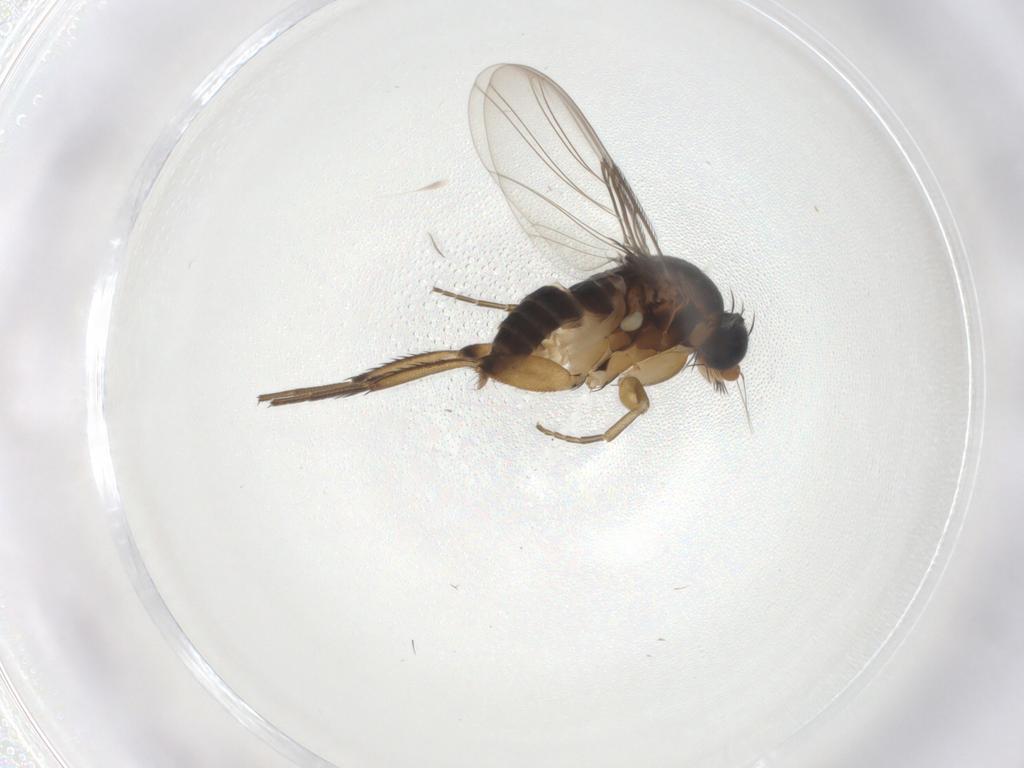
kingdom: Animalia
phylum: Arthropoda
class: Insecta
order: Diptera
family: Phoridae
